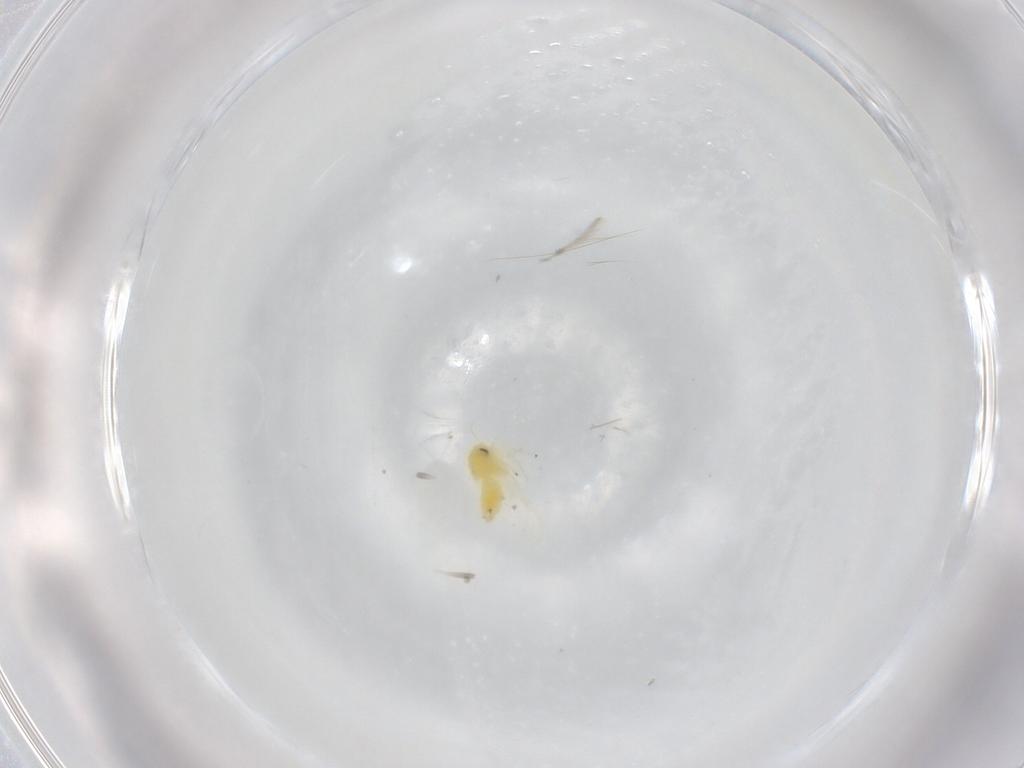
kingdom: Animalia
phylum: Arthropoda
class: Insecta
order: Hemiptera
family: Aleyrodidae
